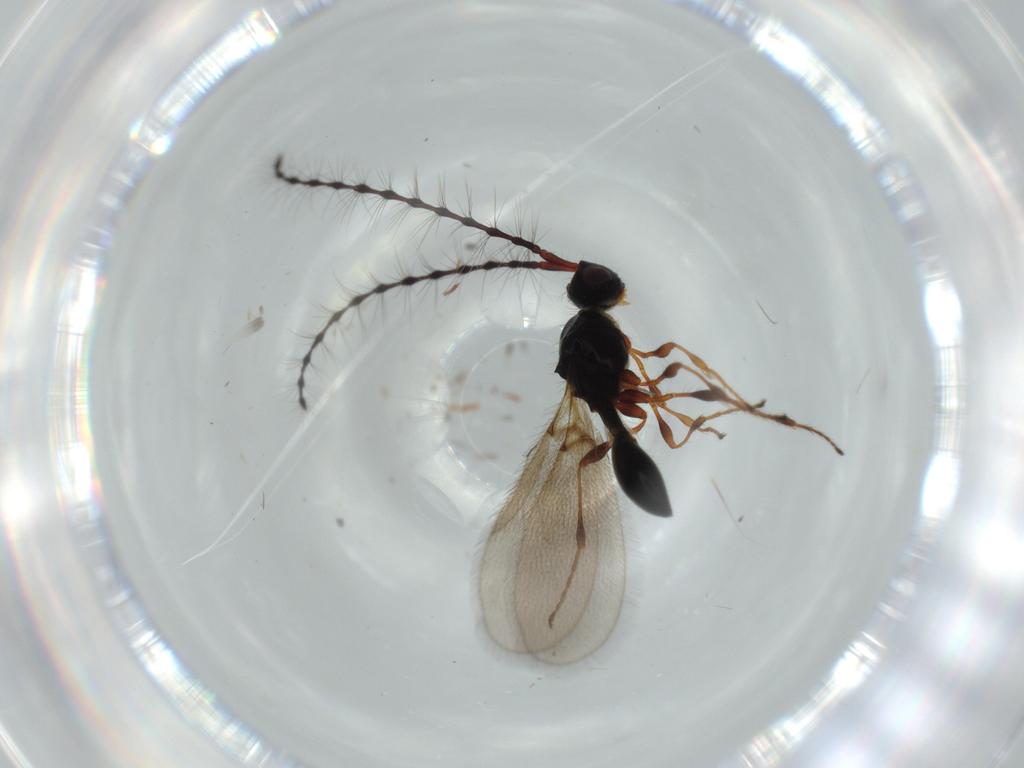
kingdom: Animalia
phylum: Arthropoda
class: Insecta
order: Hymenoptera
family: Diapriidae
